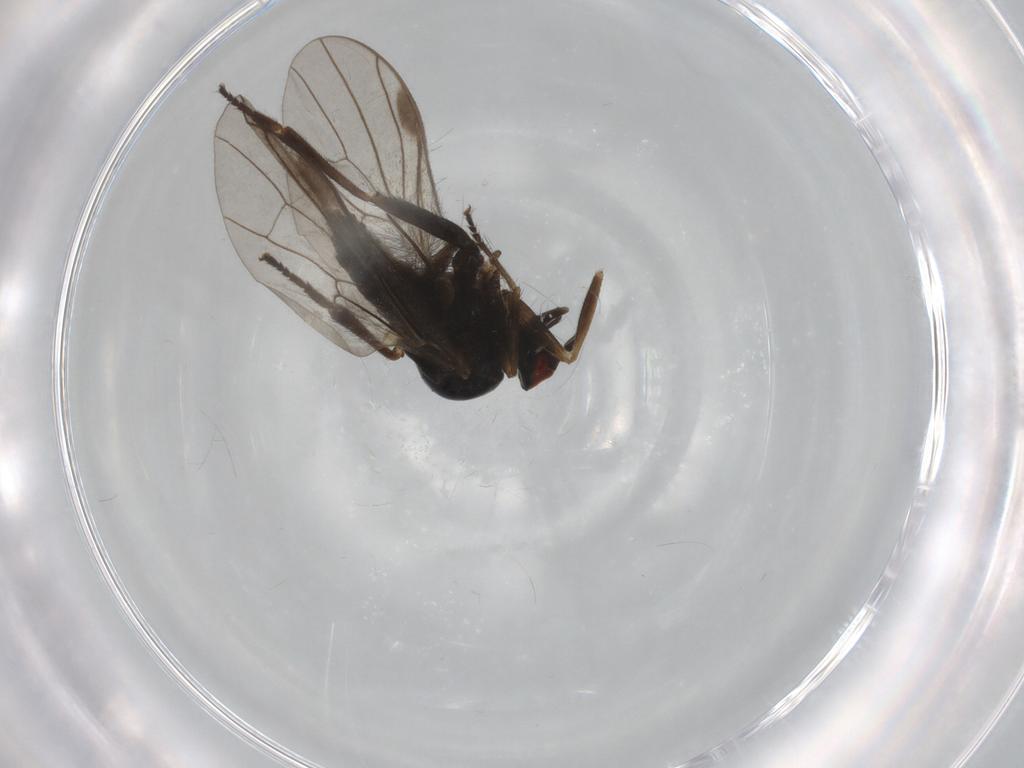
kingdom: Animalia
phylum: Arthropoda
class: Insecta
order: Diptera
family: Hybotidae
